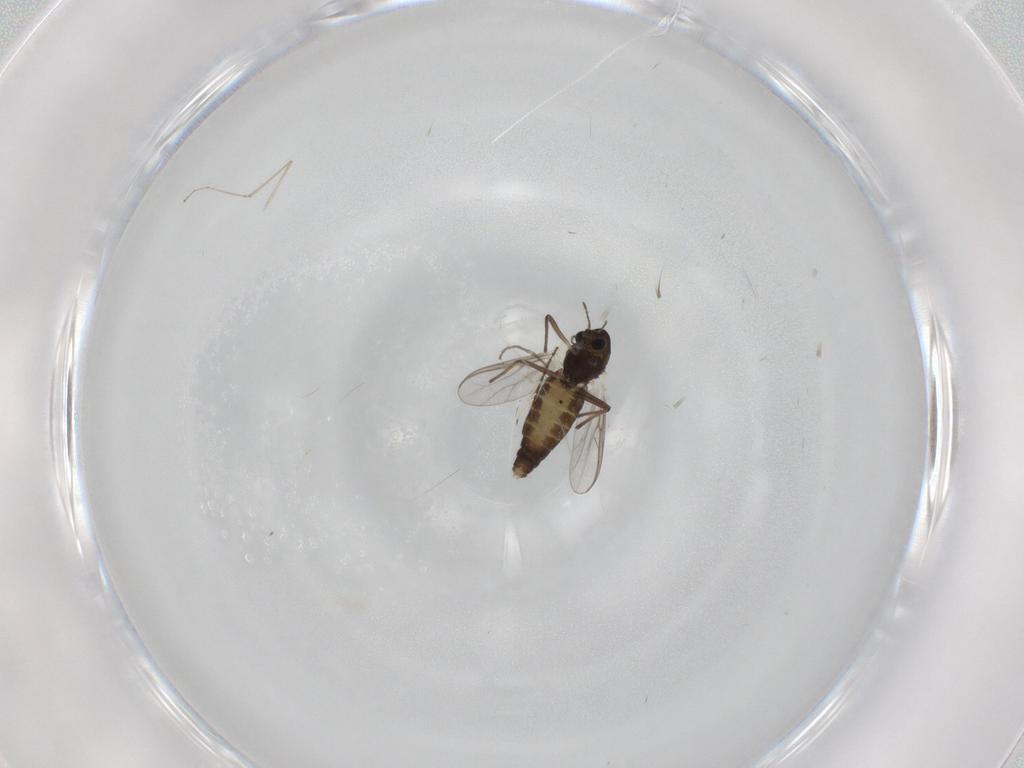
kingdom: Animalia
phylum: Arthropoda
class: Insecta
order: Diptera
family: Chironomidae
